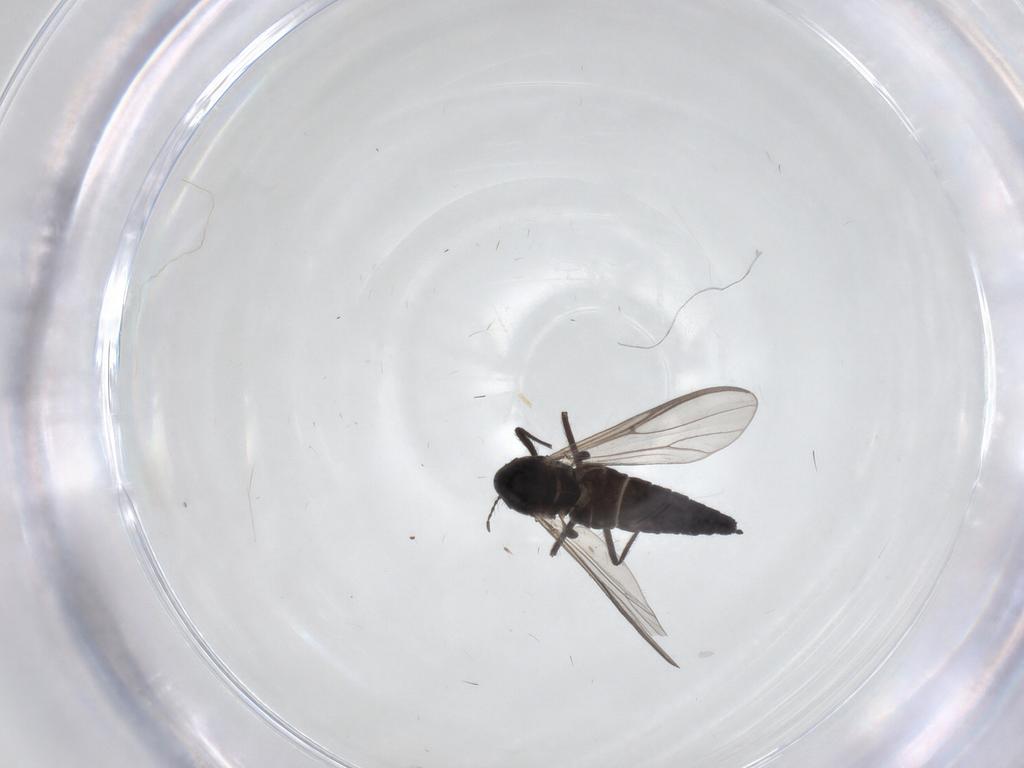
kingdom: Animalia
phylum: Arthropoda
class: Insecta
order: Diptera
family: Chironomidae
